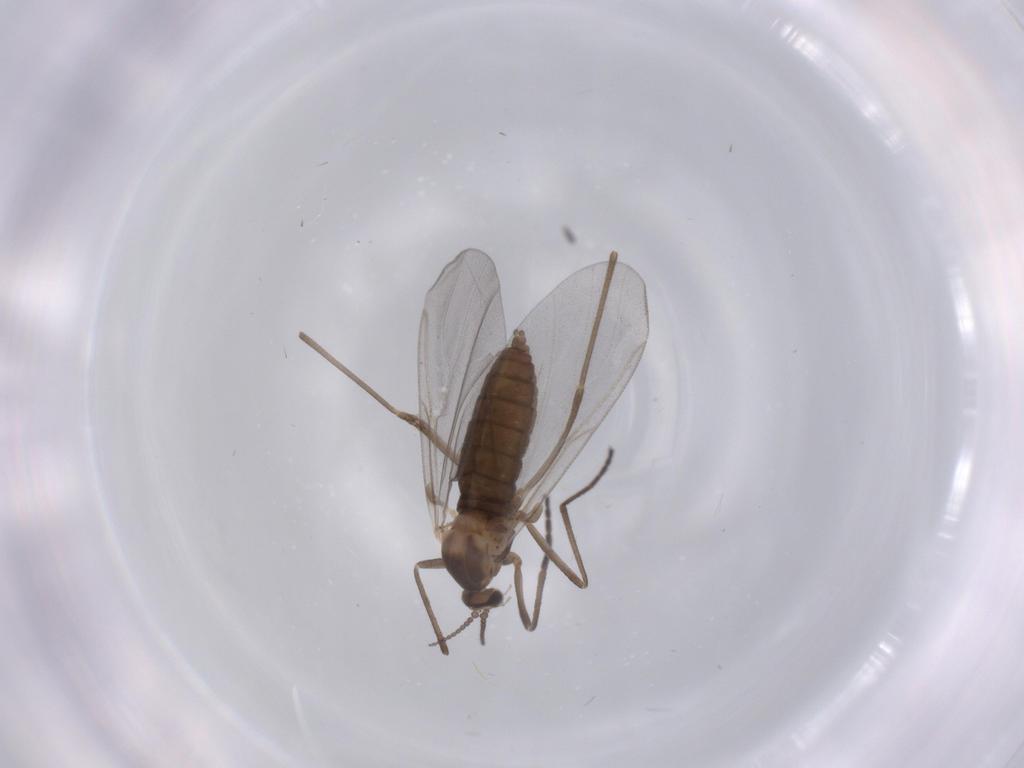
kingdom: Animalia
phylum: Arthropoda
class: Insecta
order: Diptera
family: Cecidomyiidae
